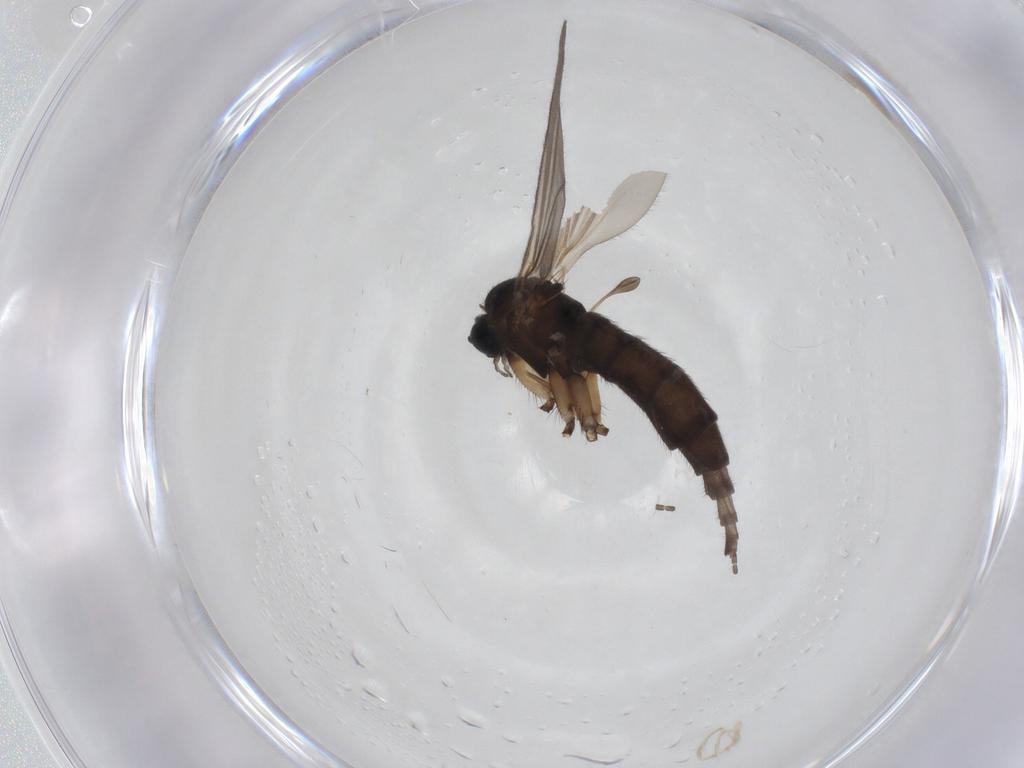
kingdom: Animalia
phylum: Arthropoda
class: Insecta
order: Diptera
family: Sciaridae
